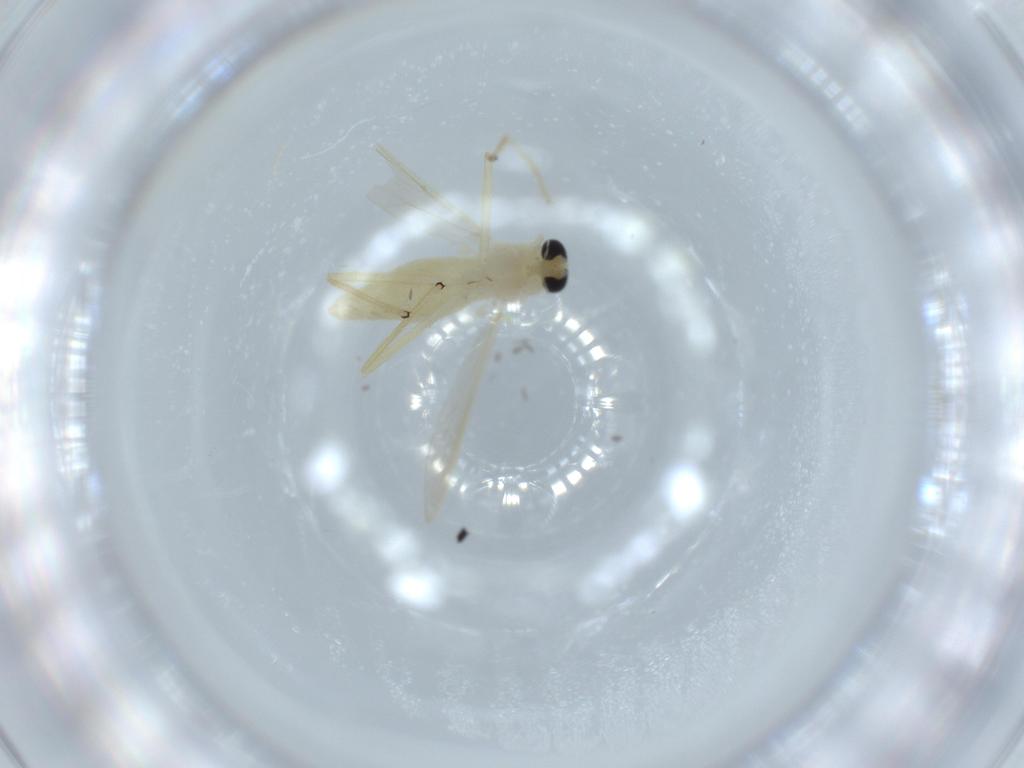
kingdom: Animalia
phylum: Arthropoda
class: Insecta
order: Diptera
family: Chironomidae
